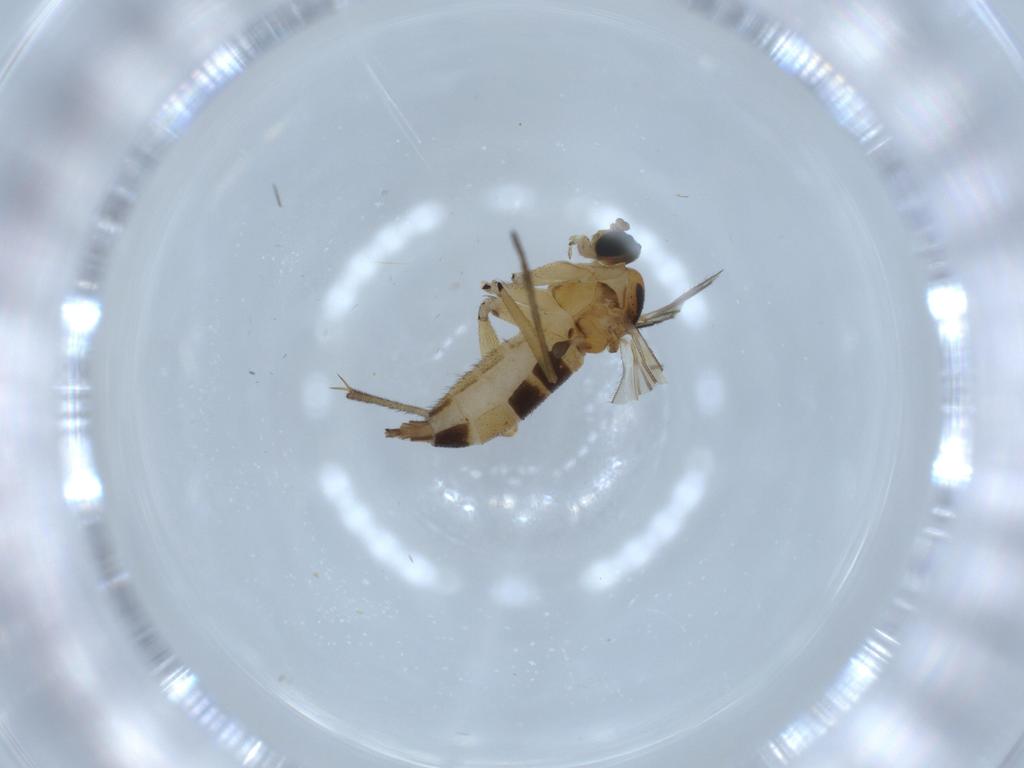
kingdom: Animalia
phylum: Arthropoda
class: Insecta
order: Diptera
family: Sciaridae
